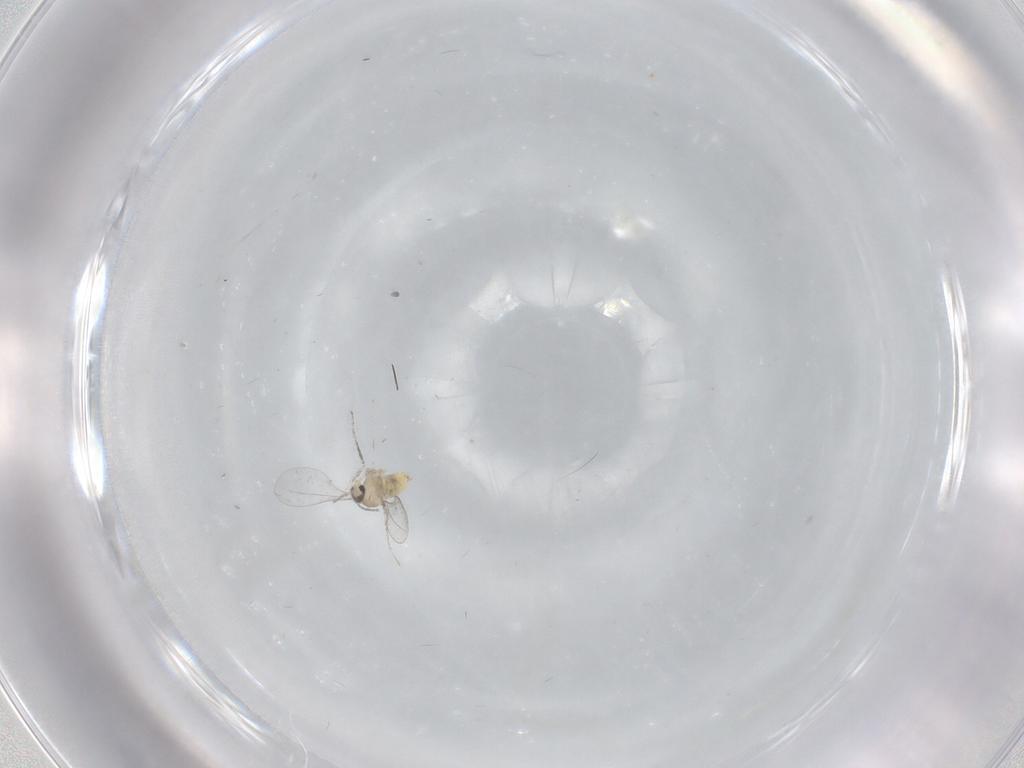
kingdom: Animalia
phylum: Arthropoda
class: Insecta
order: Diptera
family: Cecidomyiidae
